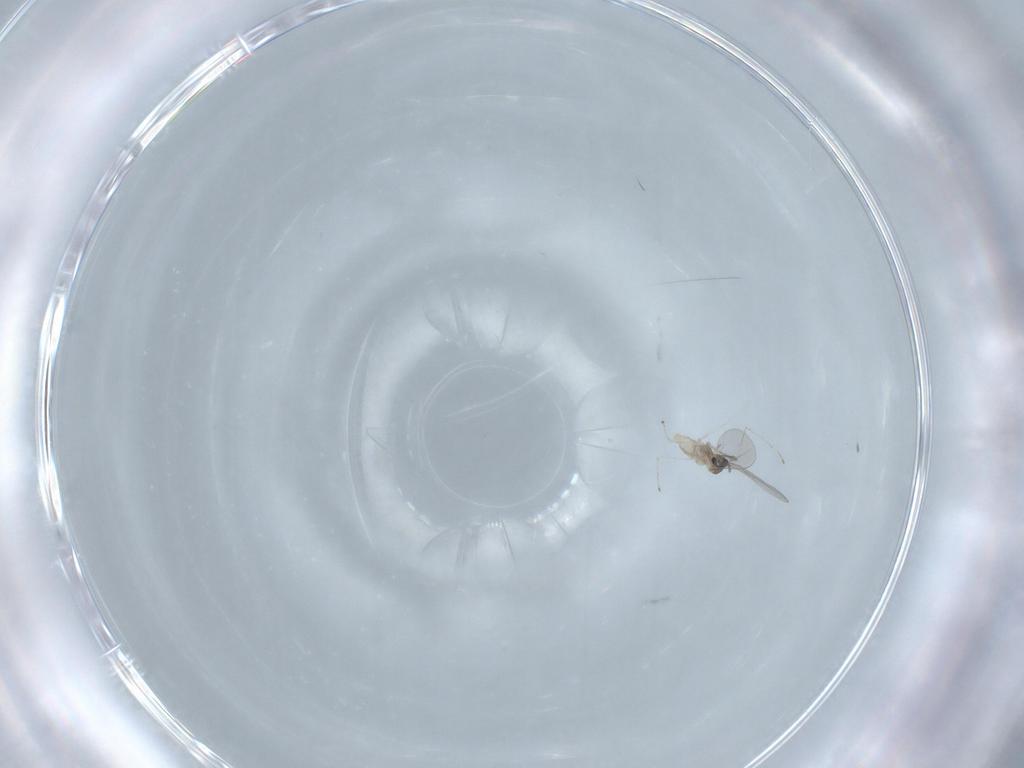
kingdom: Animalia
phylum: Arthropoda
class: Insecta
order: Diptera
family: Cecidomyiidae
